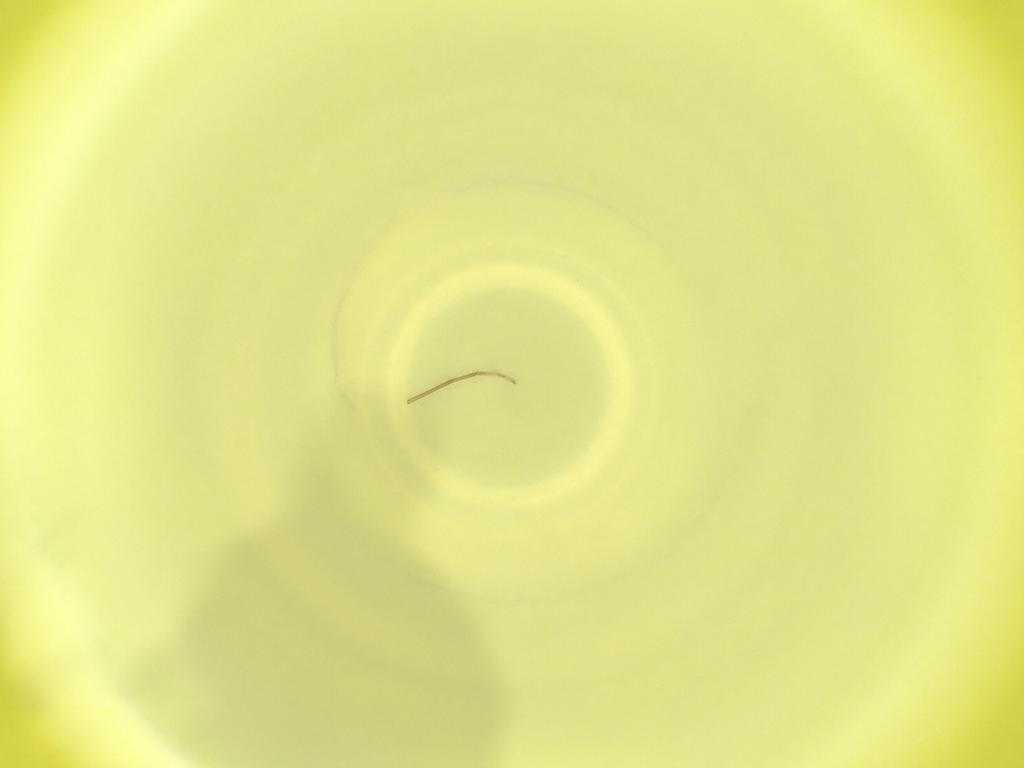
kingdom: Animalia
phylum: Arthropoda
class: Insecta
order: Diptera
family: Cecidomyiidae
